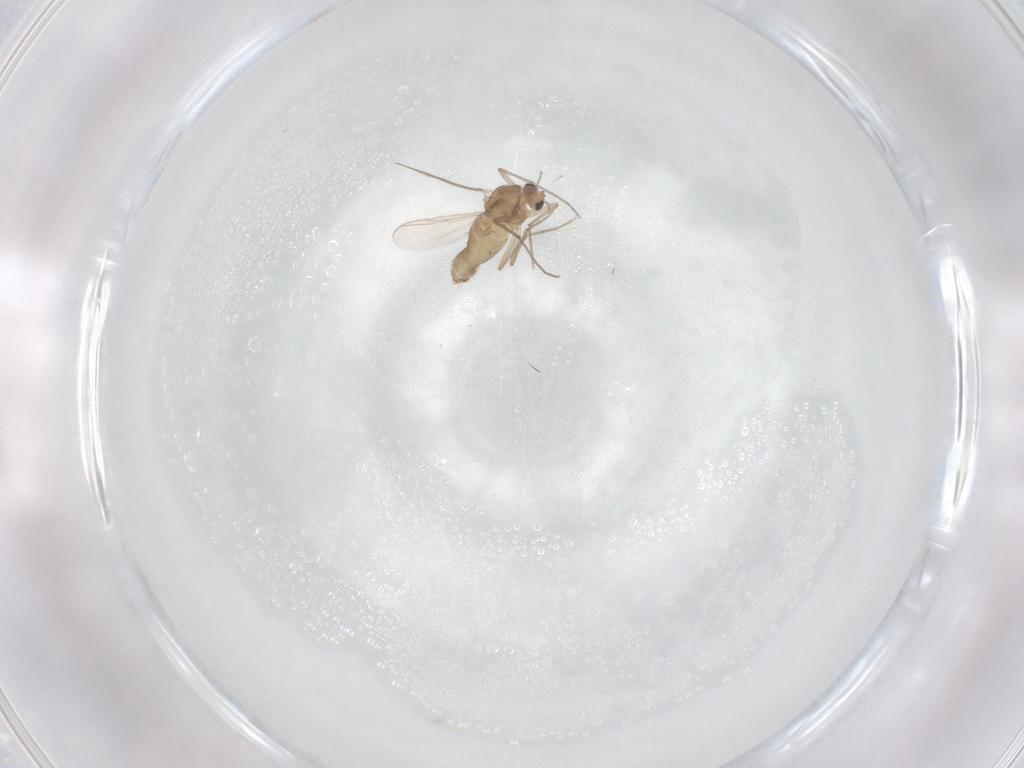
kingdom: Animalia
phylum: Arthropoda
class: Insecta
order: Diptera
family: Chironomidae
